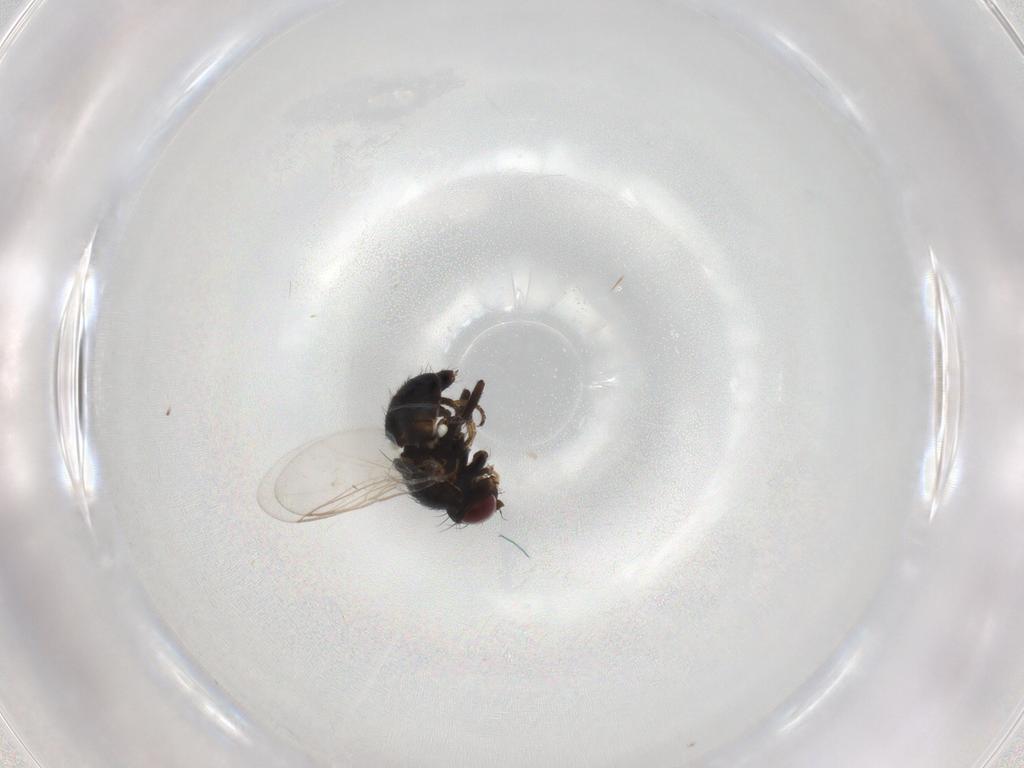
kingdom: Animalia
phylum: Arthropoda
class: Insecta
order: Diptera
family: Agromyzidae
